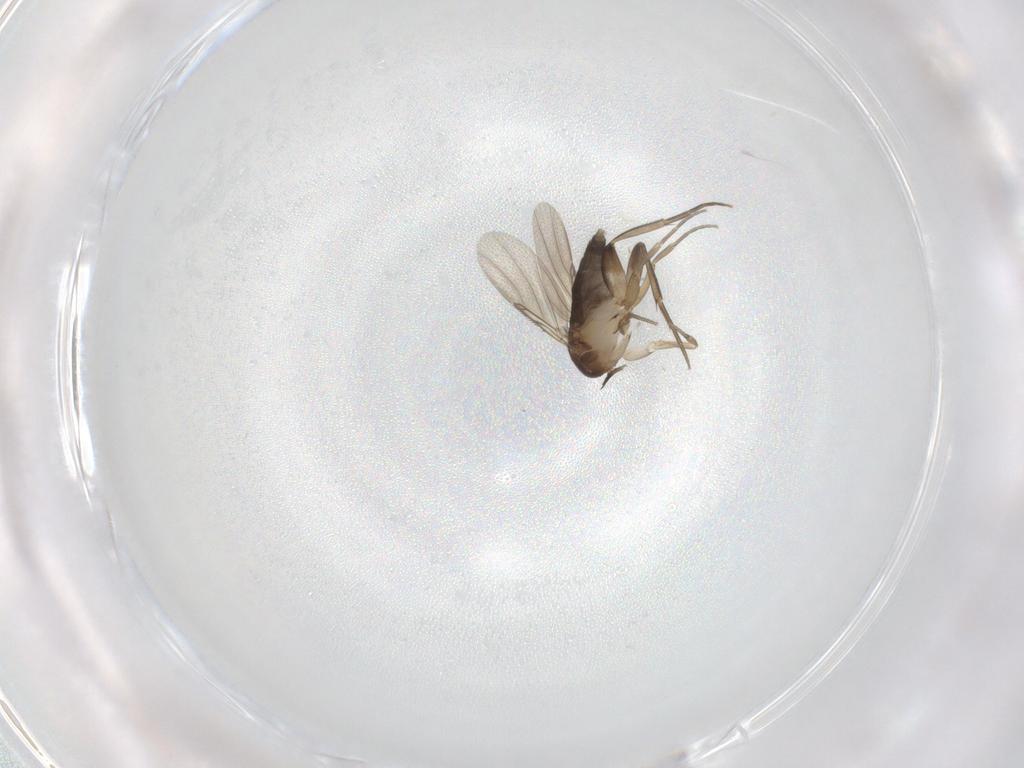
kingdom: Animalia
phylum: Arthropoda
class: Insecta
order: Diptera
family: Phoridae
